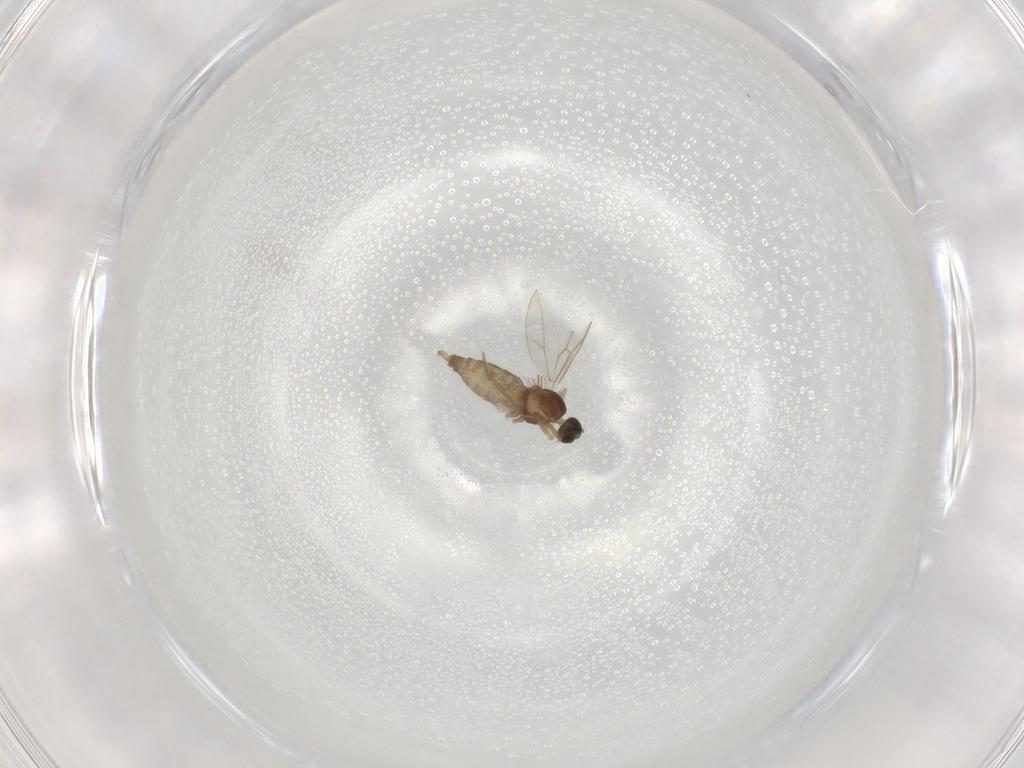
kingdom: Animalia
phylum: Arthropoda
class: Insecta
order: Diptera
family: Cecidomyiidae
